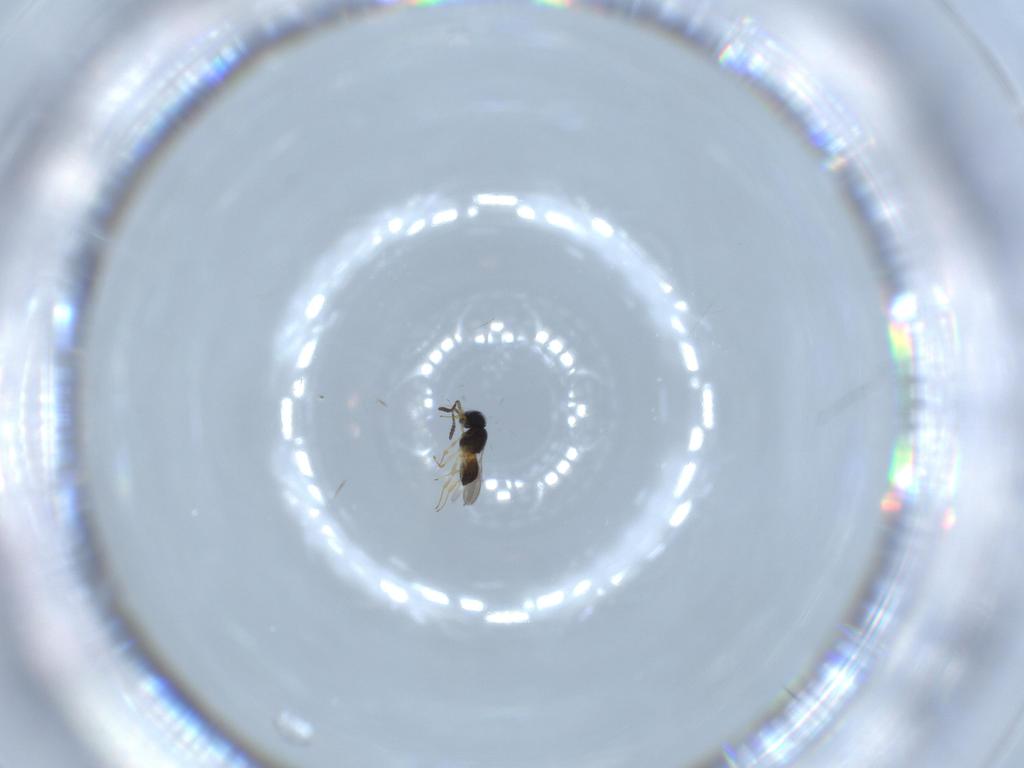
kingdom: Animalia
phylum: Arthropoda
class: Insecta
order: Hymenoptera
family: Scelionidae
